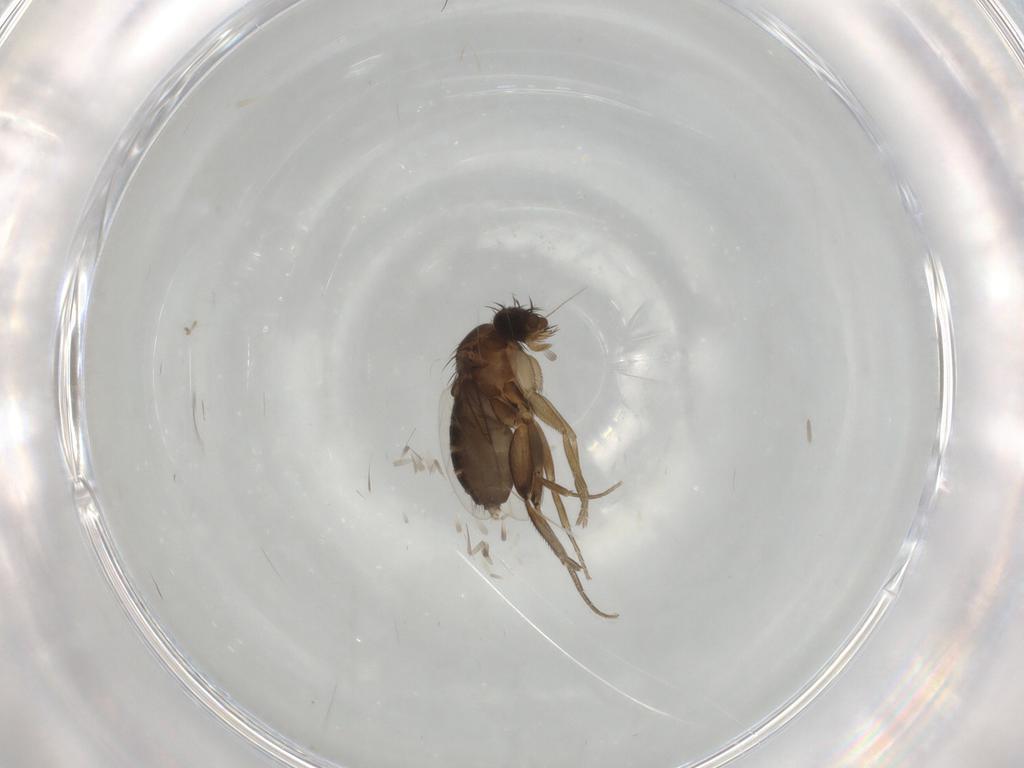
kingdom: Animalia
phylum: Arthropoda
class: Insecta
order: Diptera
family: Phoridae
